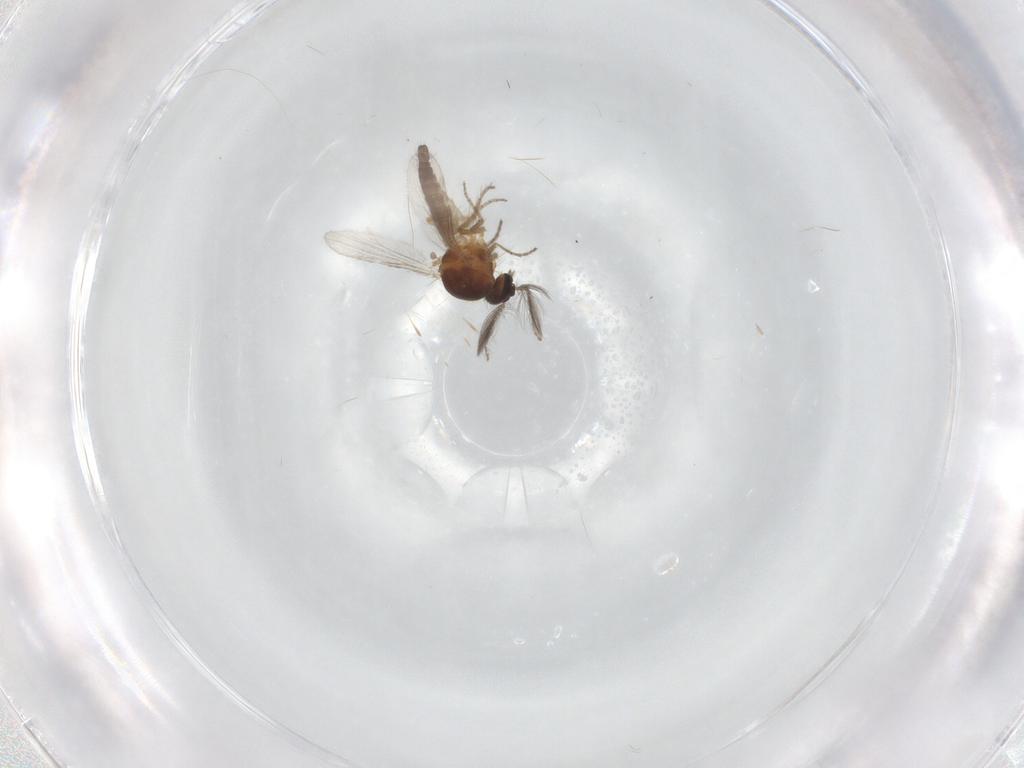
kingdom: Animalia
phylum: Arthropoda
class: Insecta
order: Diptera
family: Ceratopogonidae
